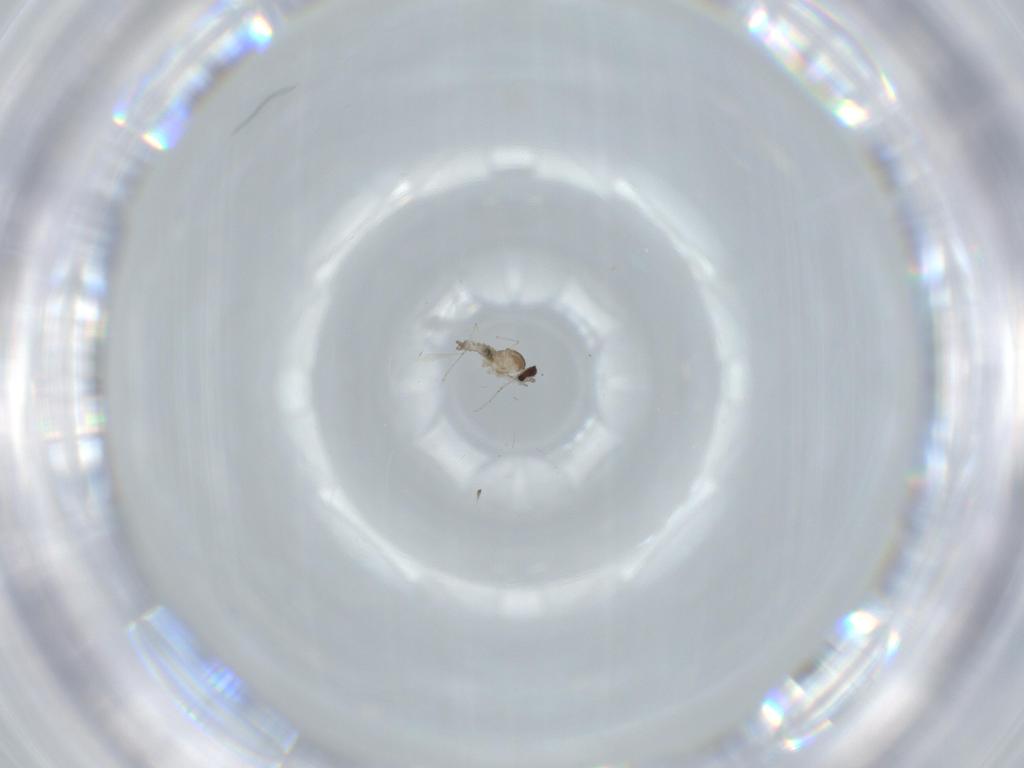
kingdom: Animalia
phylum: Arthropoda
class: Insecta
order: Diptera
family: Cecidomyiidae
